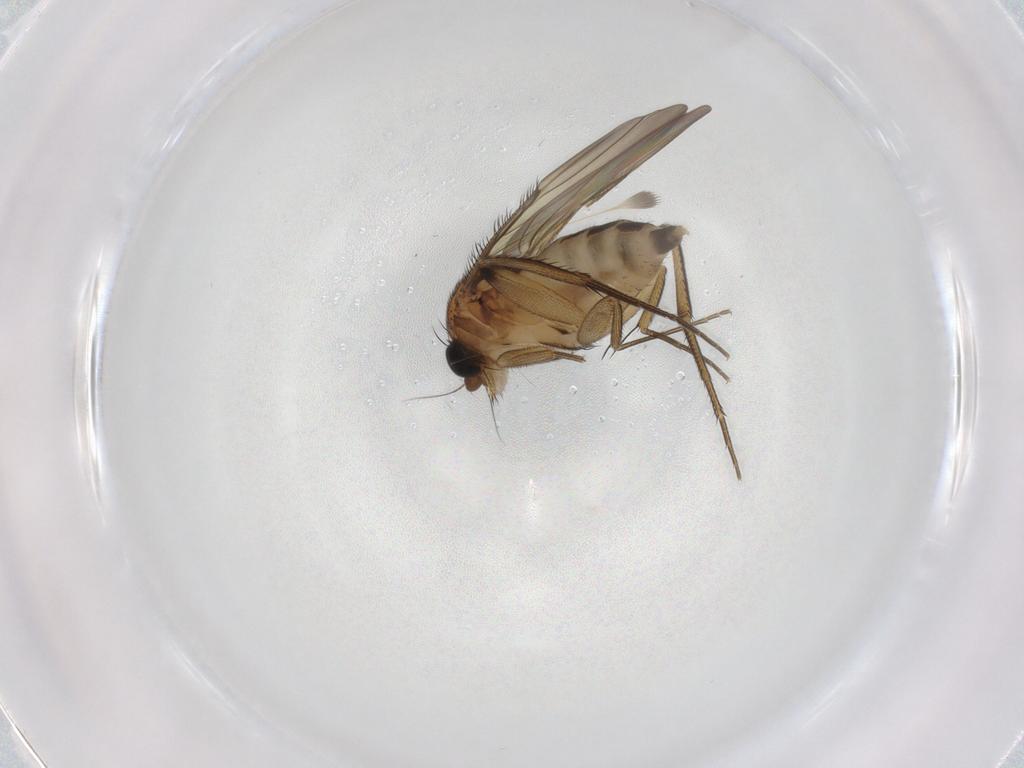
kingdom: Animalia
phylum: Arthropoda
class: Insecta
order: Diptera
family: Phoridae
